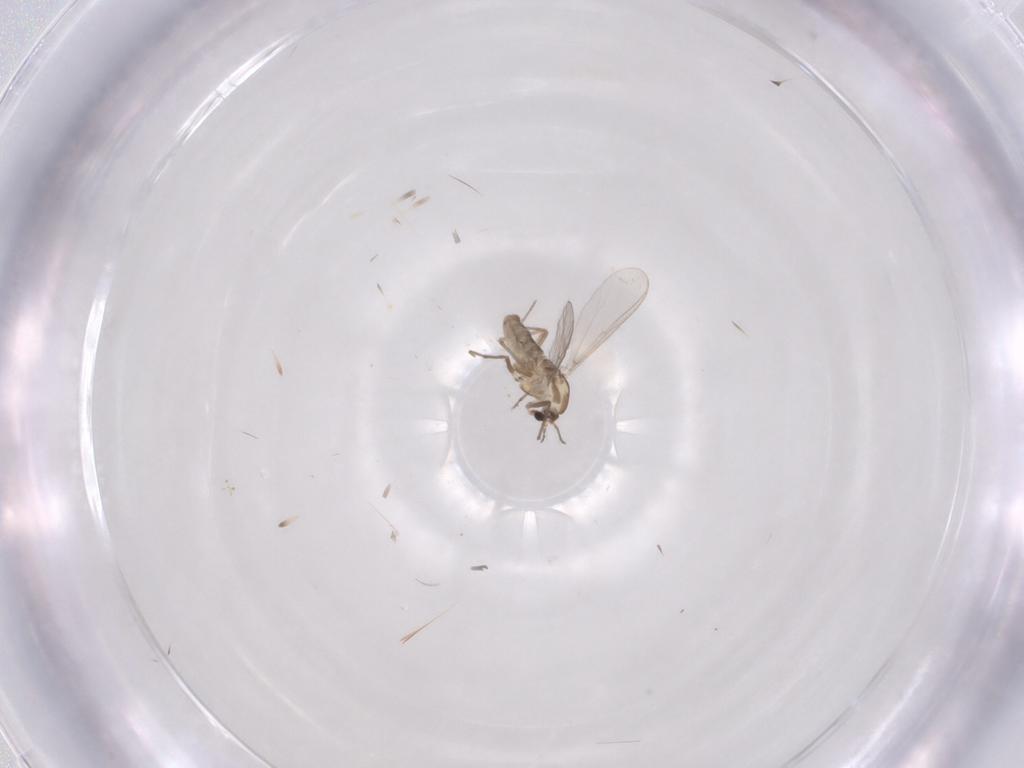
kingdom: Animalia
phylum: Arthropoda
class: Insecta
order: Diptera
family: Chironomidae
